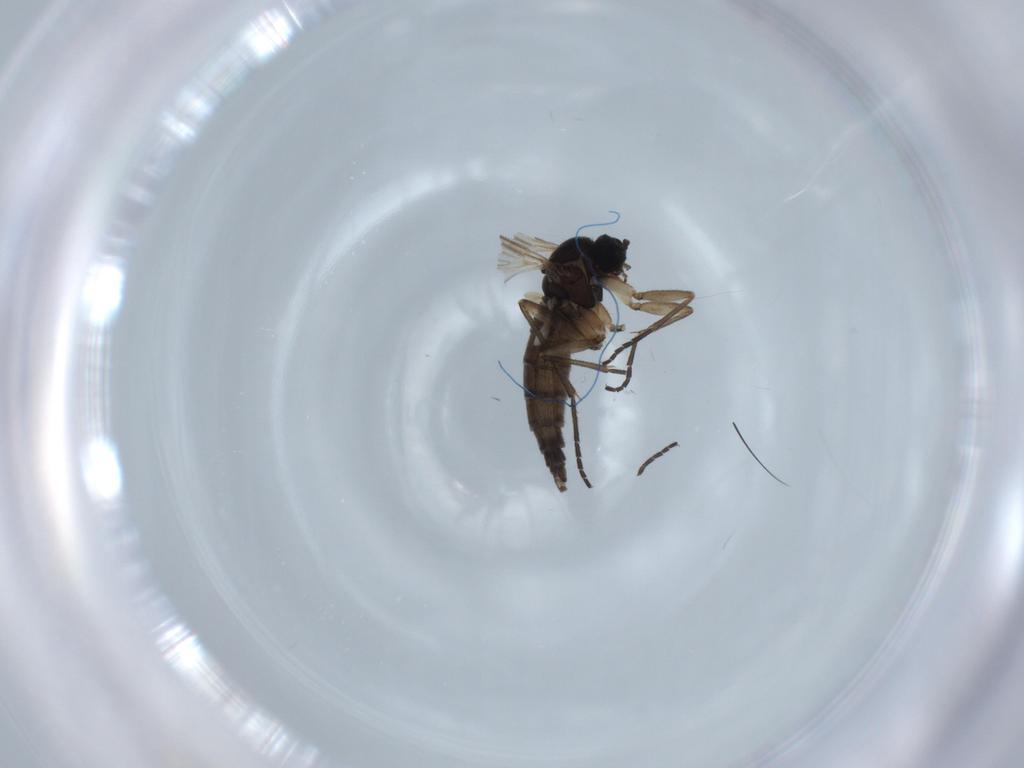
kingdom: Animalia
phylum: Arthropoda
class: Insecta
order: Diptera
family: Sciaridae
